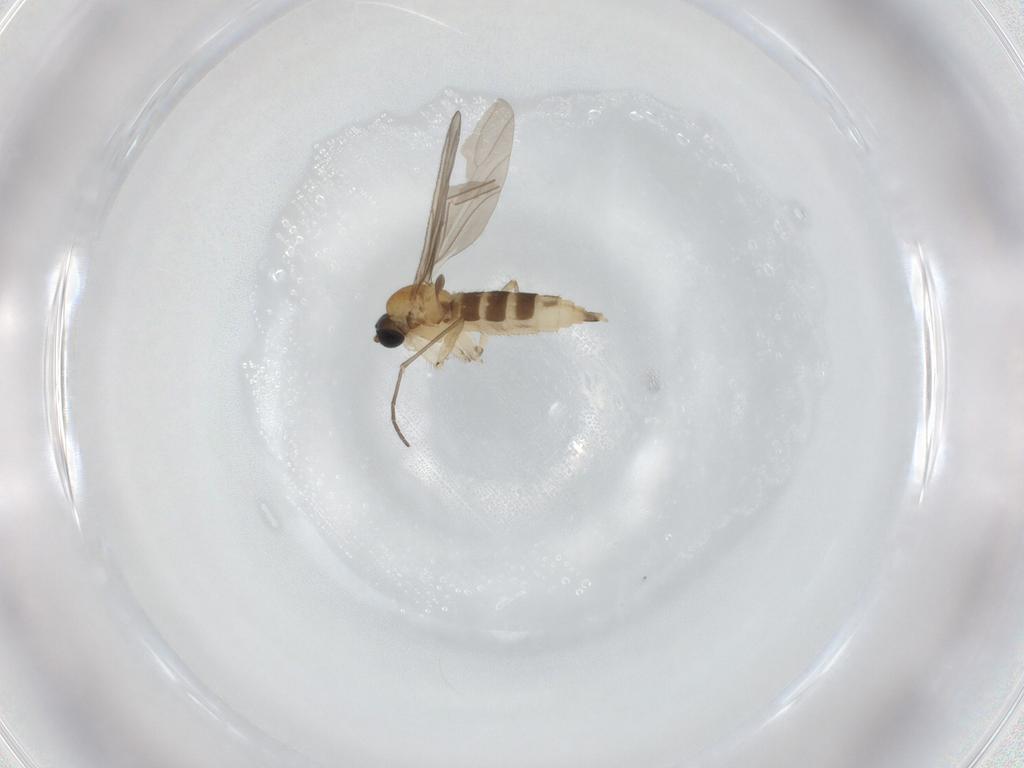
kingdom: Animalia
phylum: Arthropoda
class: Insecta
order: Diptera
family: Sciaridae
